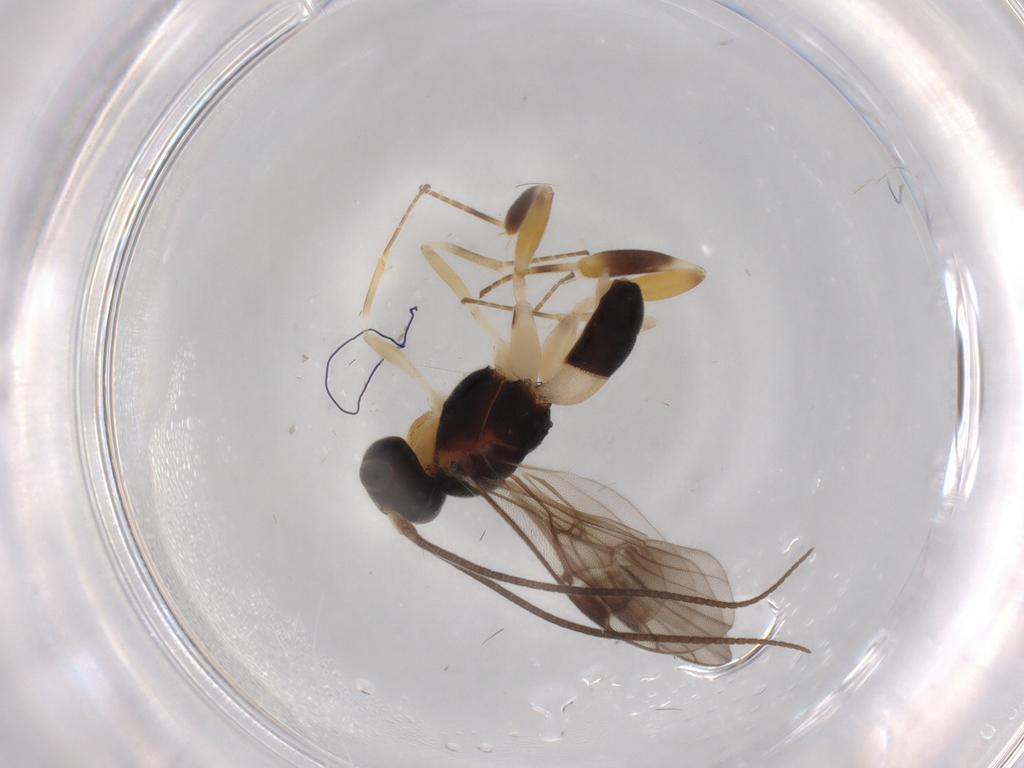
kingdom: Animalia
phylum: Arthropoda
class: Insecta
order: Hymenoptera
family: Braconidae
